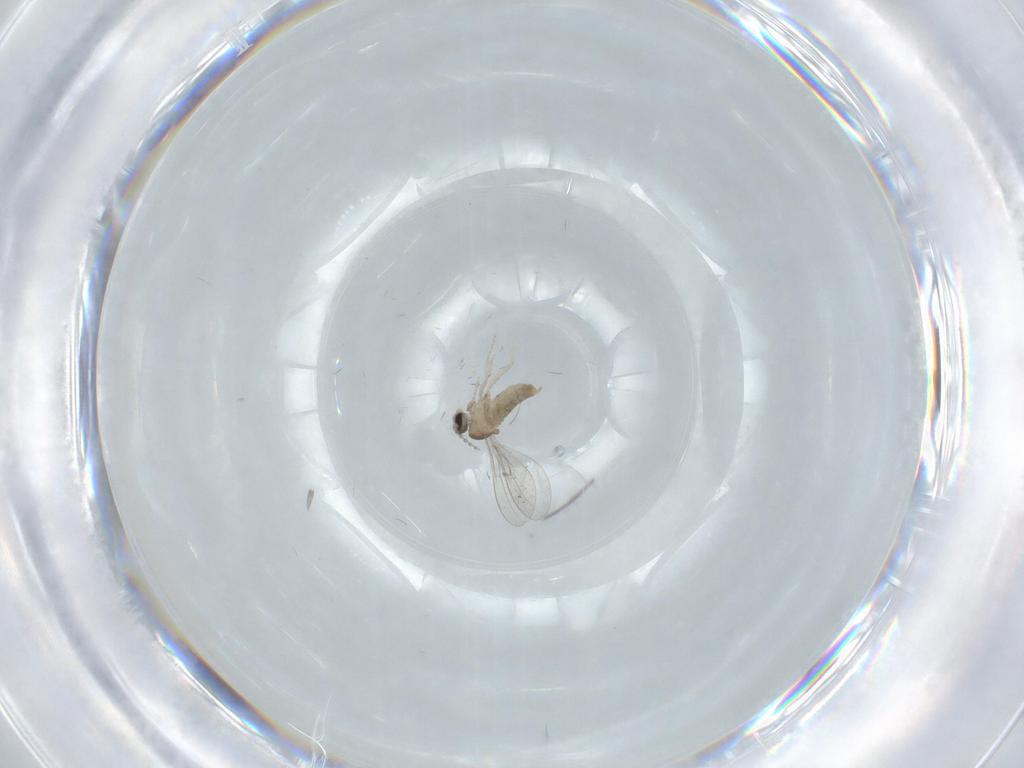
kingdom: Animalia
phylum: Arthropoda
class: Insecta
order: Diptera
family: Cecidomyiidae
